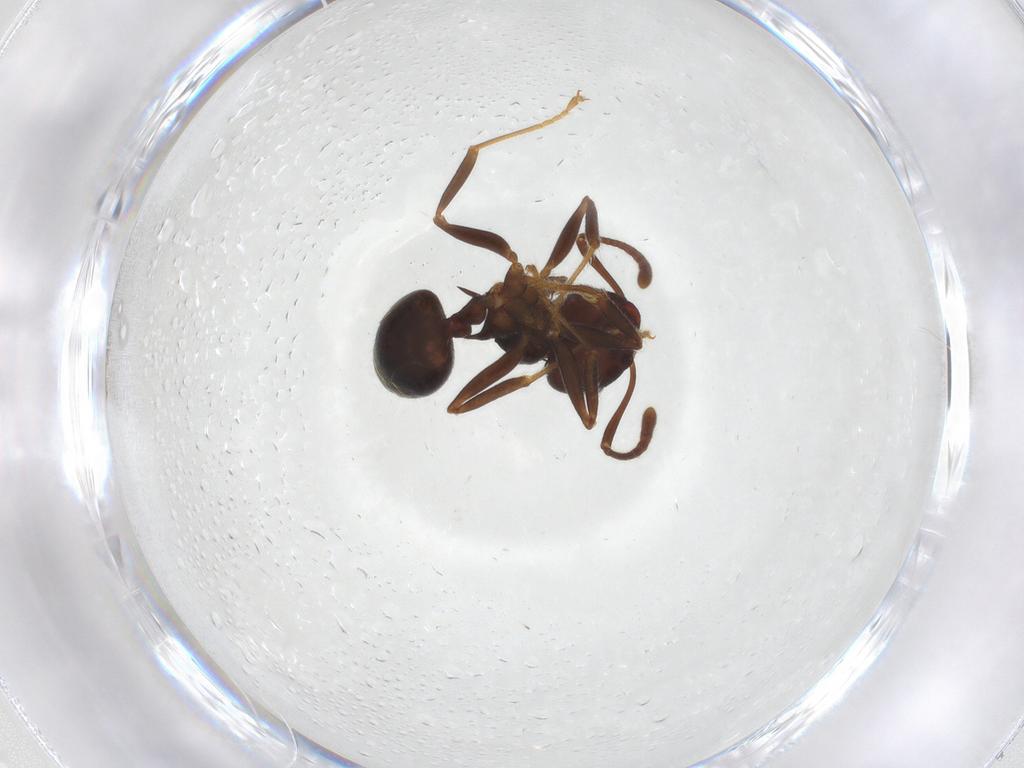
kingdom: Animalia
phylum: Arthropoda
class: Insecta
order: Hymenoptera
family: Formicidae
